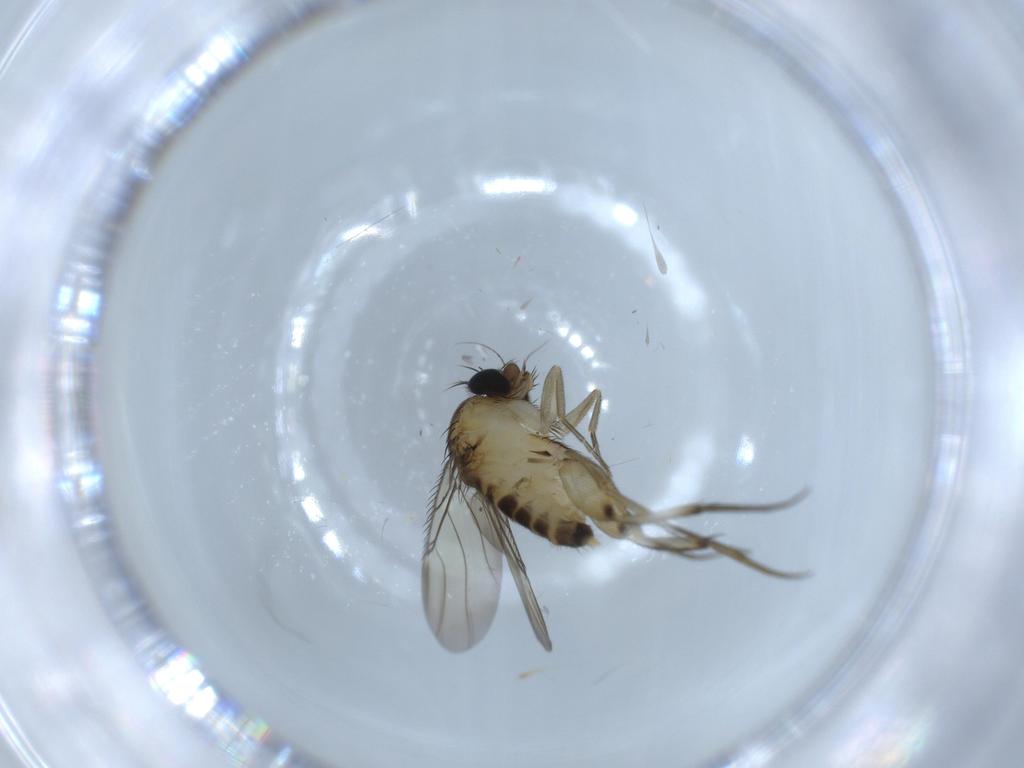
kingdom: Animalia
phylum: Arthropoda
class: Insecta
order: Diptera
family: Phoridae
